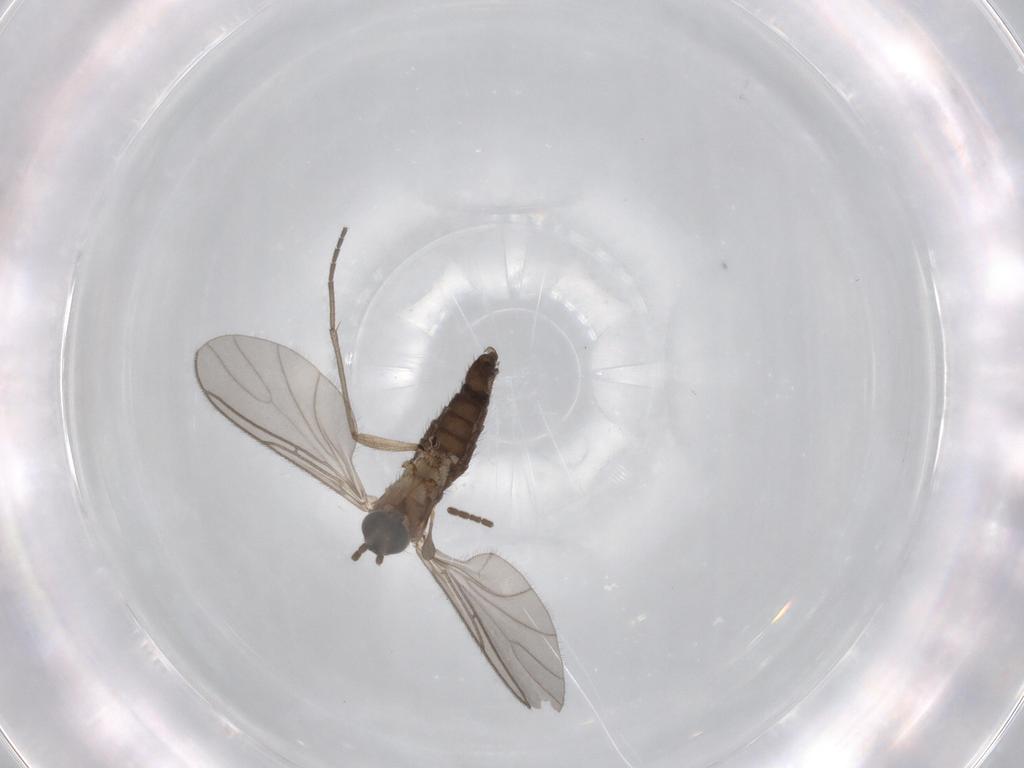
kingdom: Animalia
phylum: Arthropoda
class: Insecta
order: Diptera
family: Sciaridae
